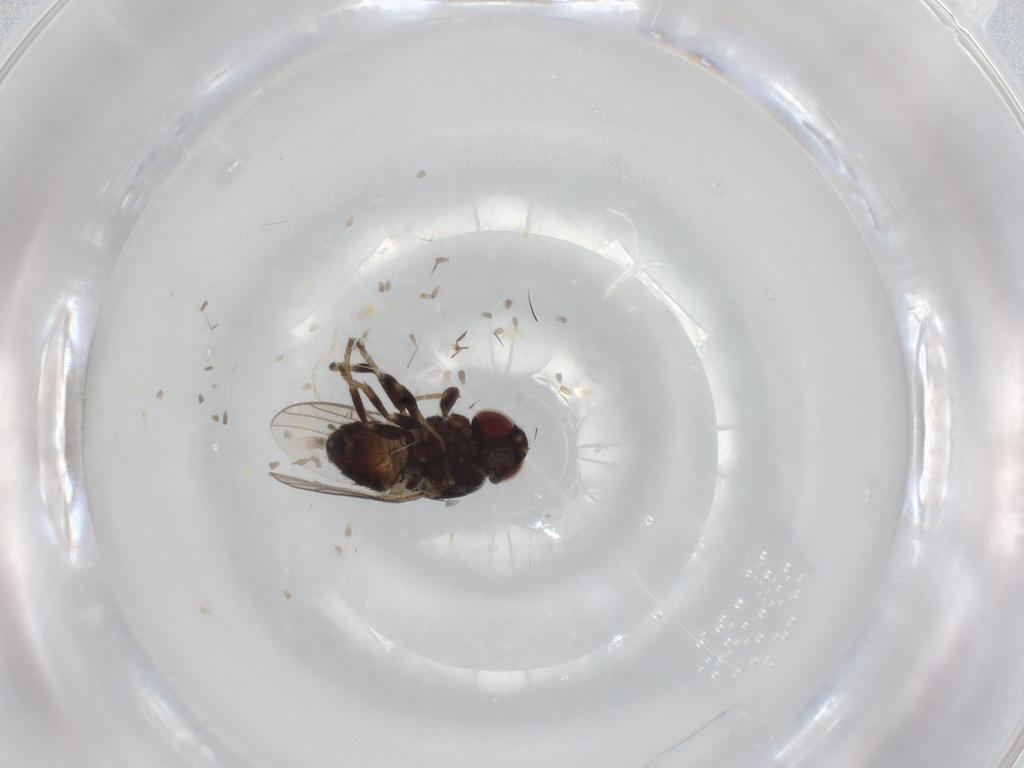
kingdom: Animalia
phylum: Arthropoda
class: Insecta
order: Diptera
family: Chloropidae
